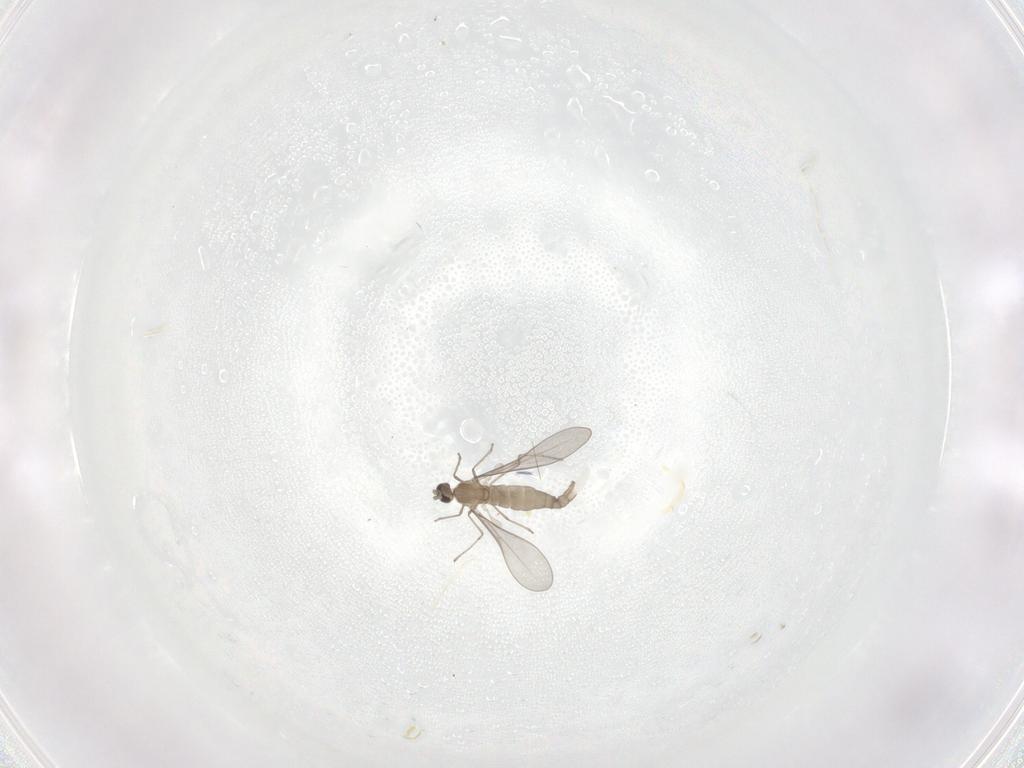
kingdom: Animalia
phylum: Arthropoda
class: Insecta
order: Diptera
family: Cecidomyiidae
